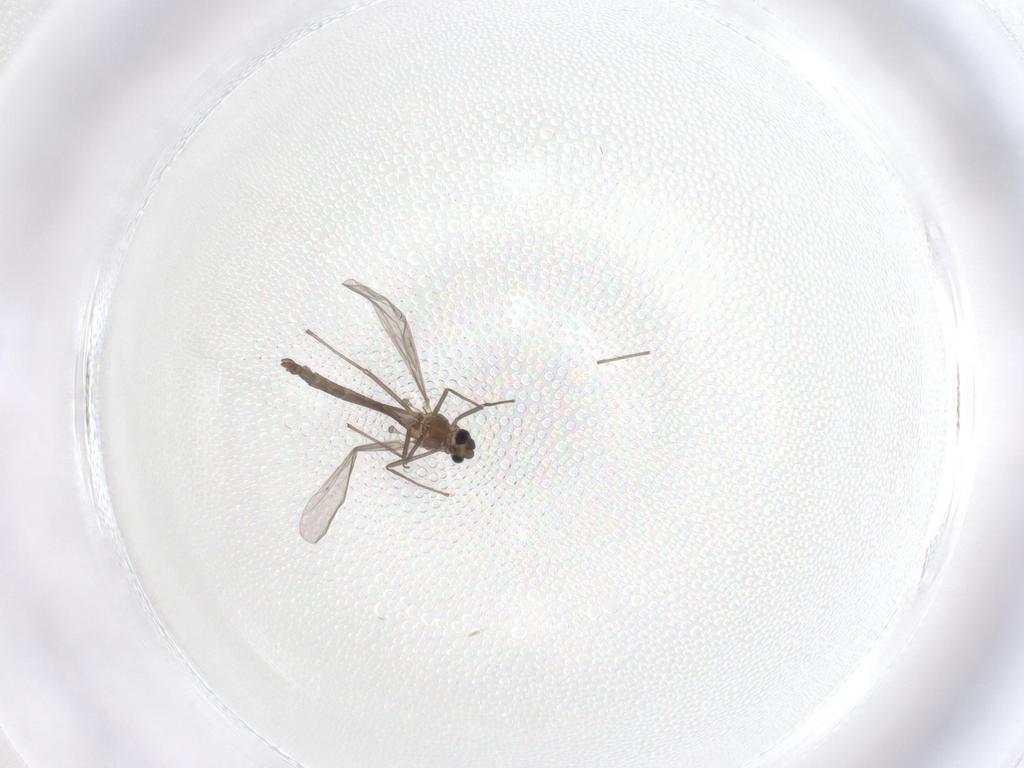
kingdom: Animalia
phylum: Arthropoda
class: Insecta
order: Diptera
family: Chironomidae
